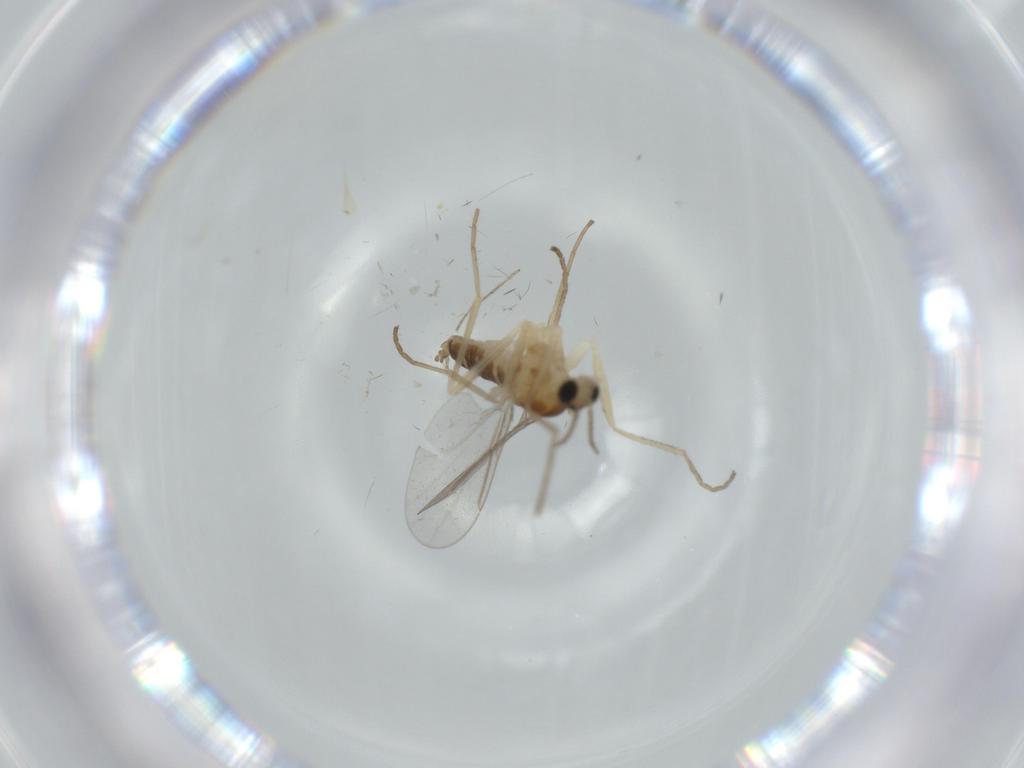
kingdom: Animalia
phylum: Arthropoda
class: Insecta
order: Diptera
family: Cecidomyiidae
